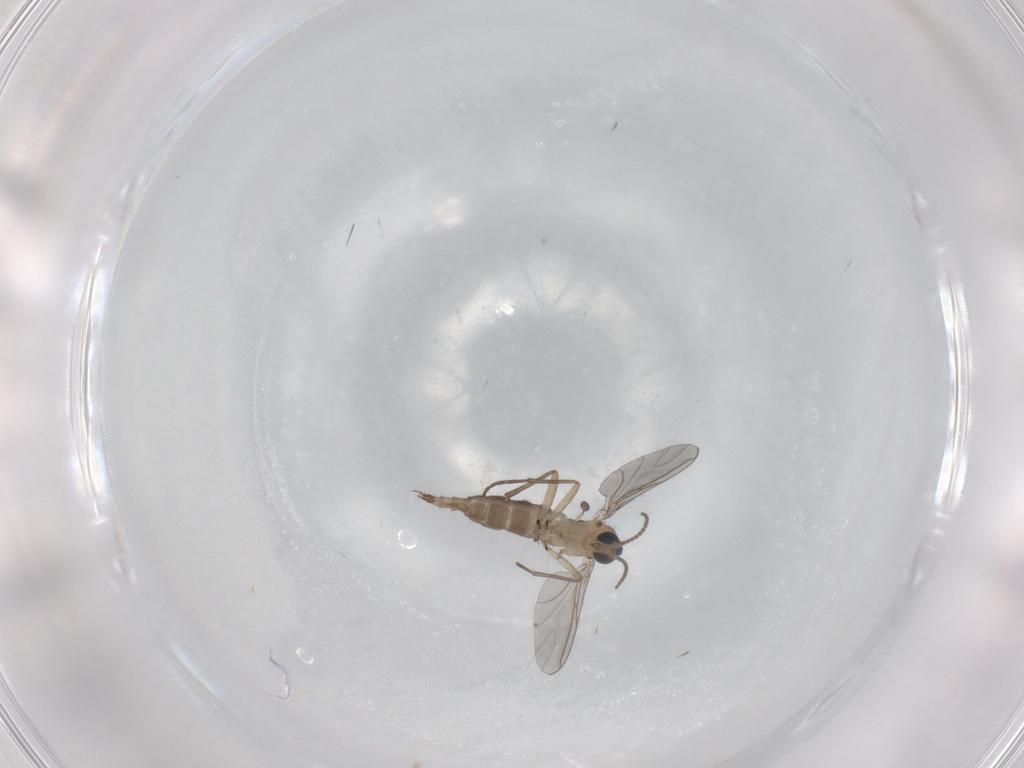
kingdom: Animalia
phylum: Arthropoda
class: Insecta
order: Diptera
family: Sciaridae
